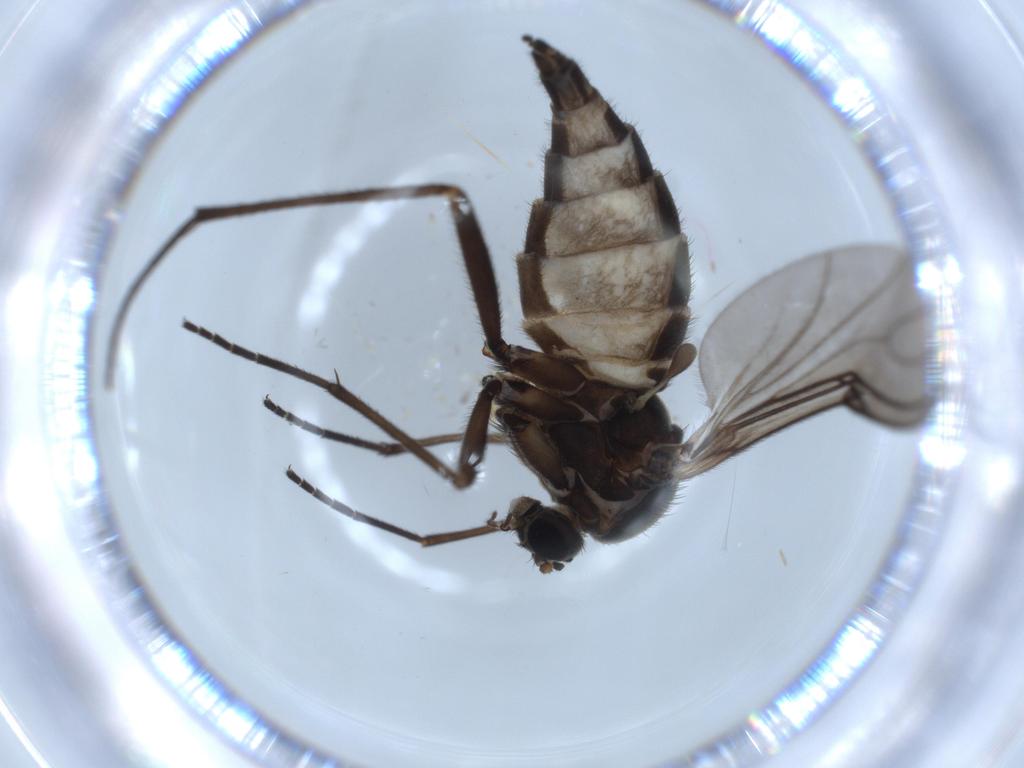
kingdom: Animalia
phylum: Arthropoda
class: Insecta
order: Diptera
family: Sciaridae
